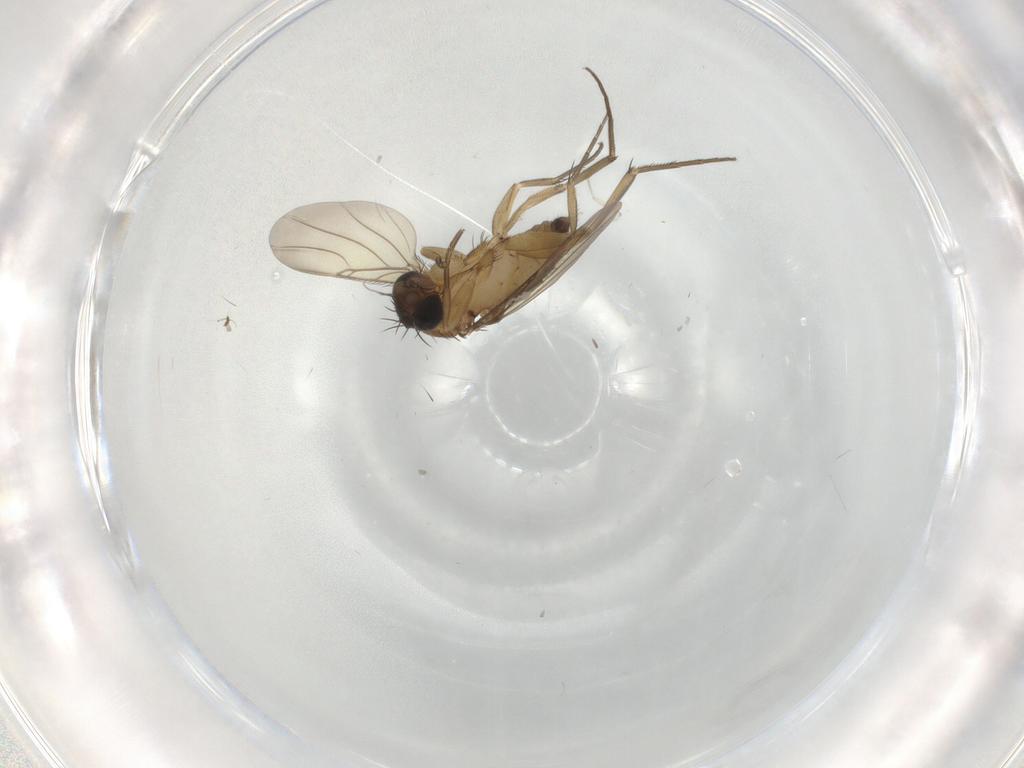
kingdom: Animalia
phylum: Arthropoda
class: Insecta
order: Diptera
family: Phoridae
